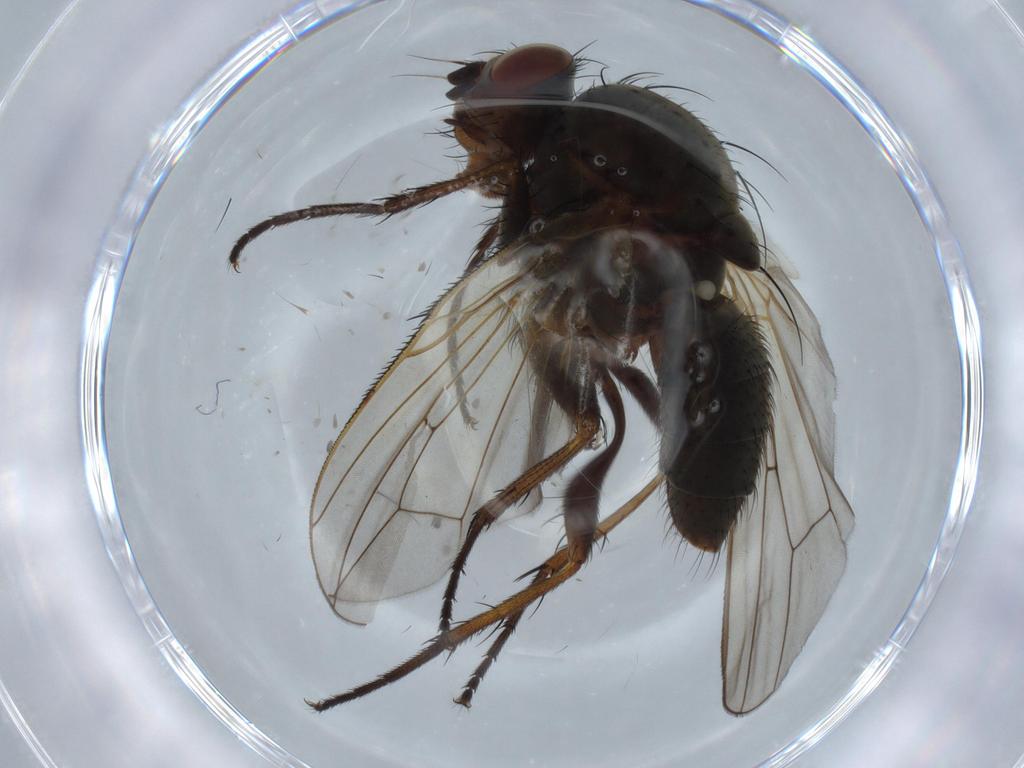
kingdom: Animalia
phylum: Arthropoda
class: Insecta
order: Diptera
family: Anthomyiidae
